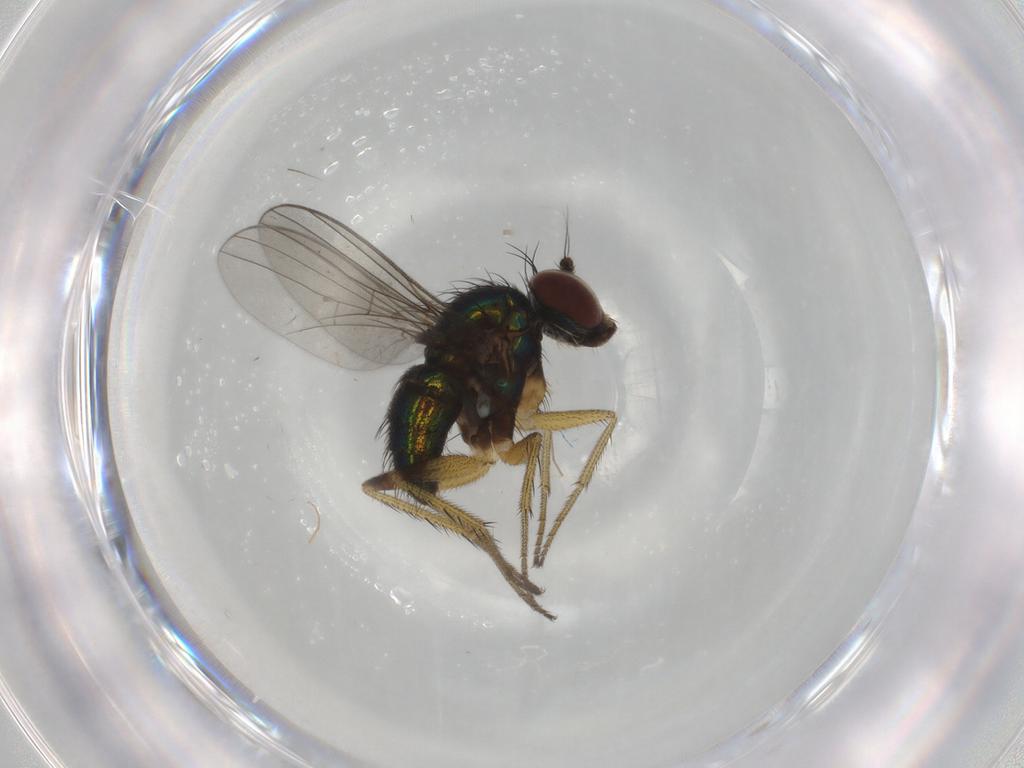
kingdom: Animalia
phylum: Arthropoda
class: Insecta
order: Diptera
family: Dolichopodidae
